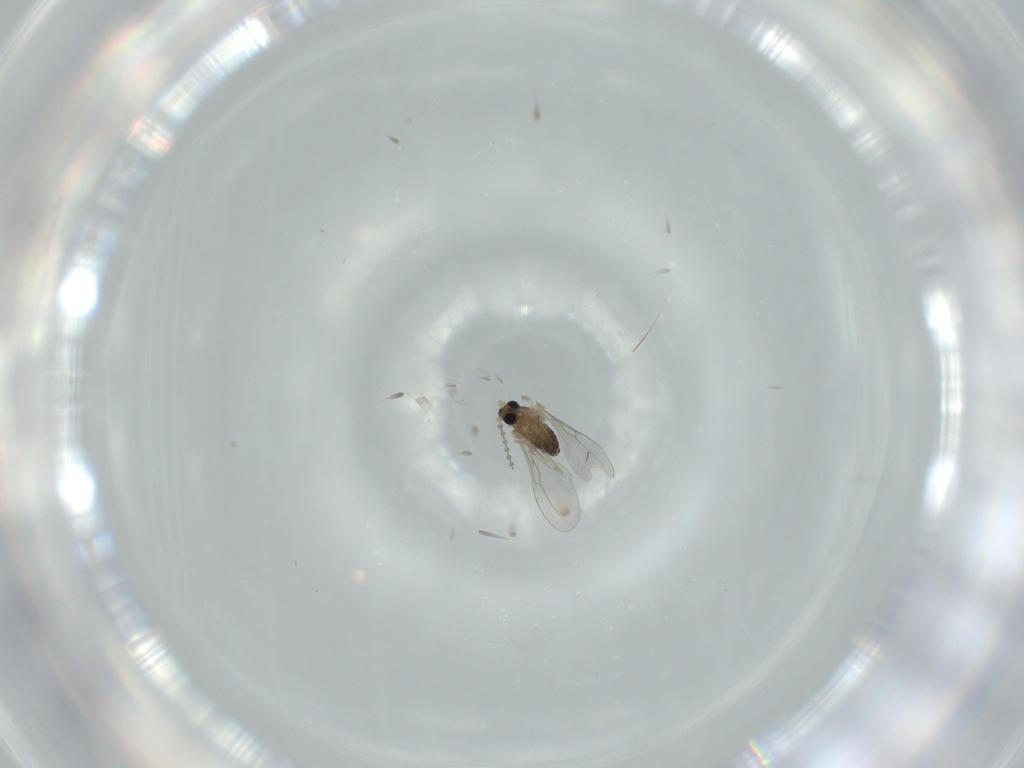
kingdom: Animalia
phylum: Arthropoda
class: Insecta
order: Diptera
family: Cecidomyiidae
